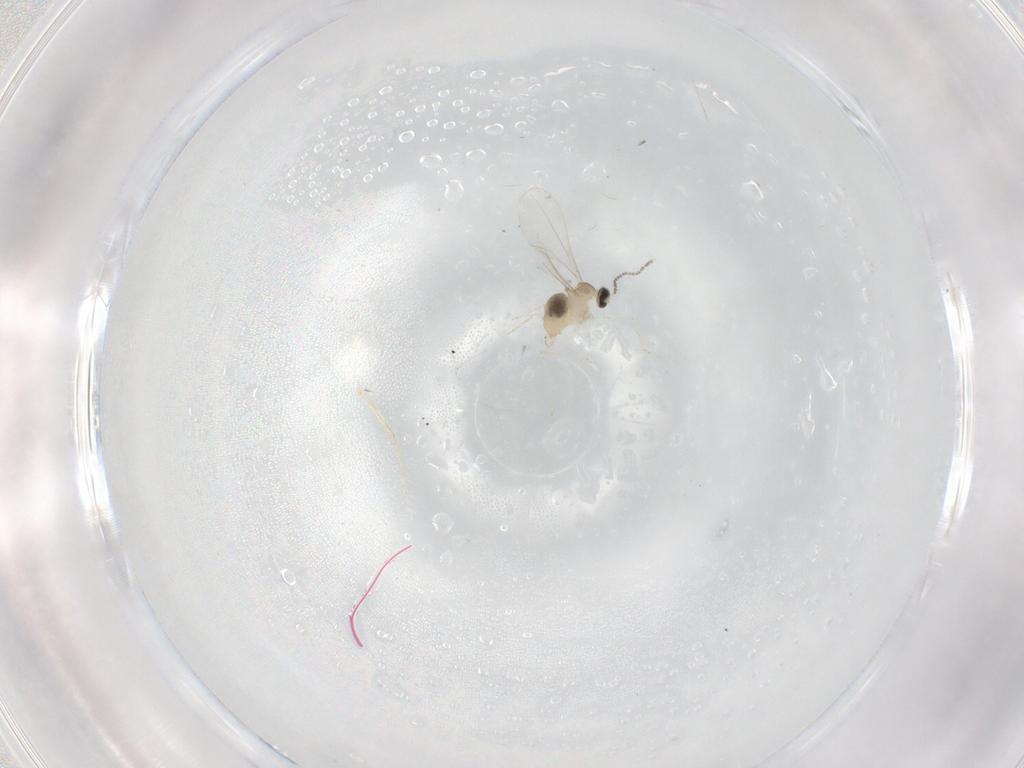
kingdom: Animalia
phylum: Arthropoda
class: Insecta
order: Diptera
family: Cecidomyiidae
